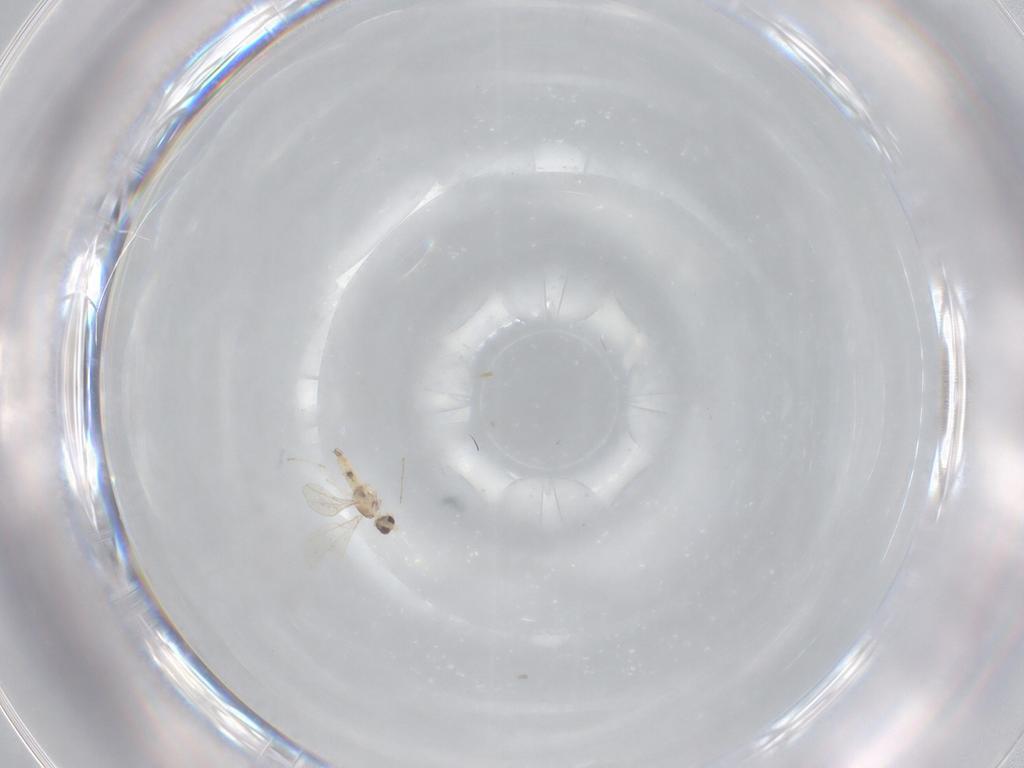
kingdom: Animalia
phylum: Arthropoda
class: Insecta
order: Diptera
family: Cecidomyiidae
